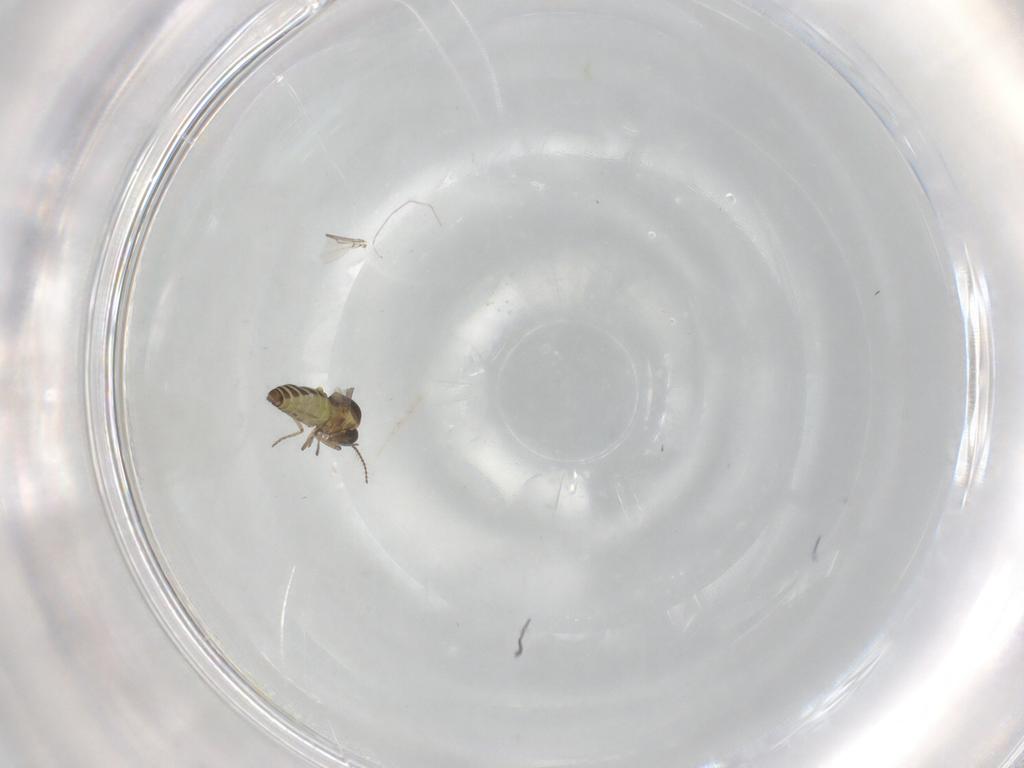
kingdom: Animalia
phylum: Arthropoda
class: Insecta
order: Diptera
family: Ceratopogonidae
